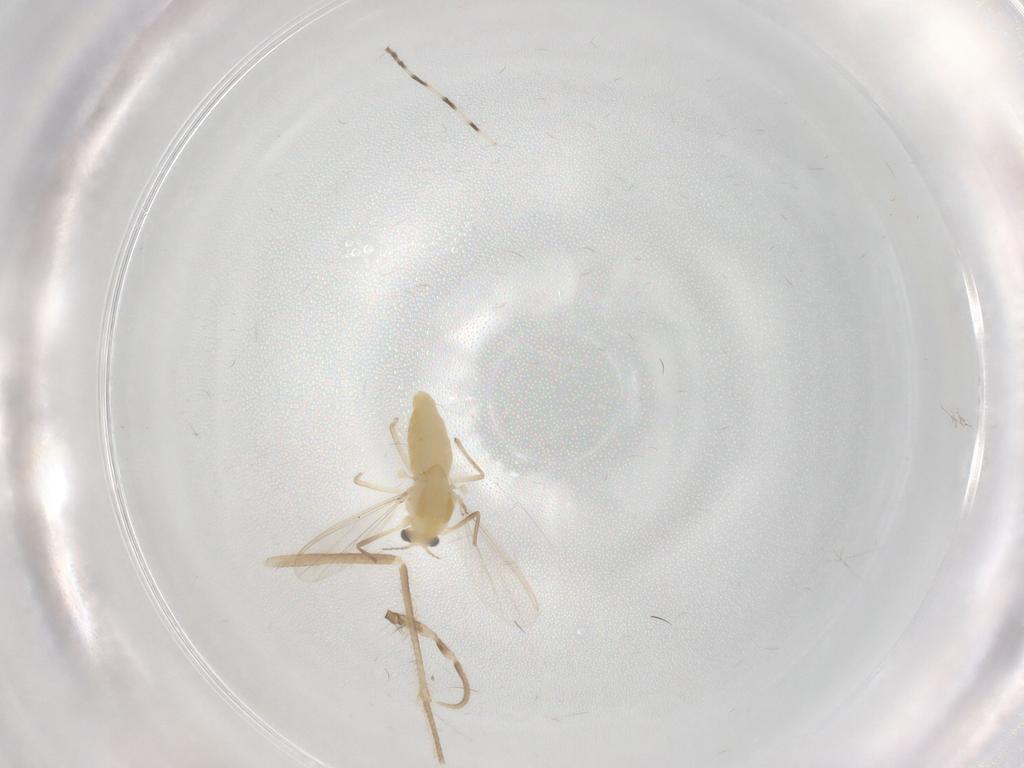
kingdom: Animalia
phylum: Arthropoda
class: Insecta
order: Diptera
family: Chironomidae
